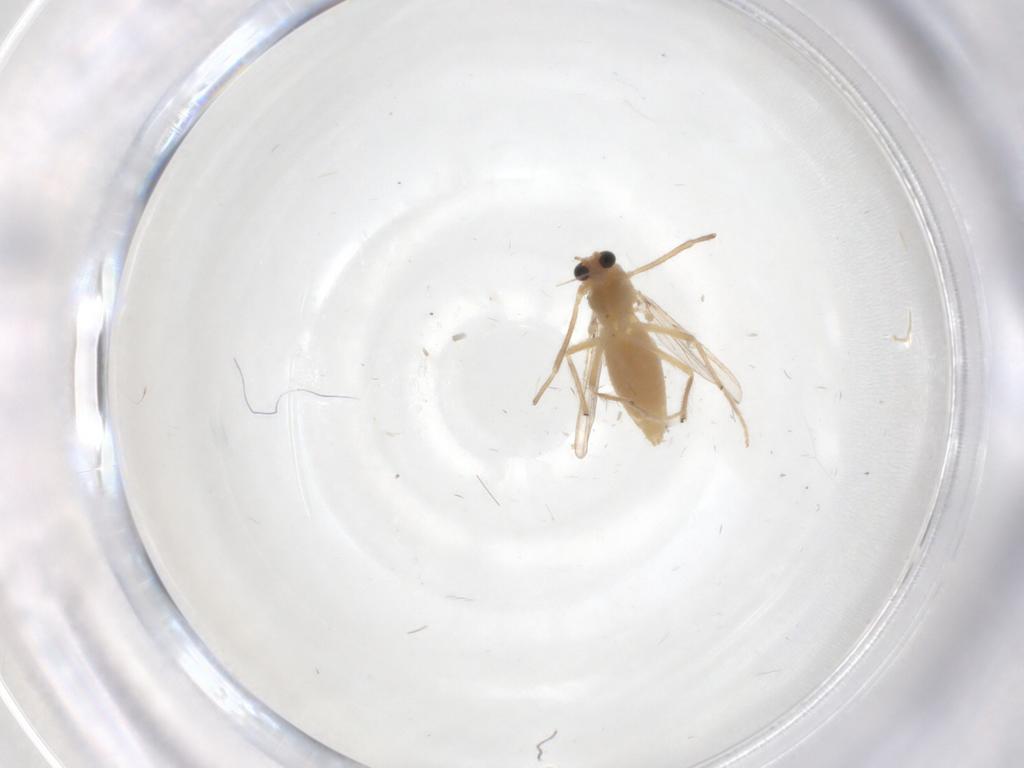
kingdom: Animalia
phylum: Arthropoda
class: Insecta
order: Diptera
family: Chironomidae
